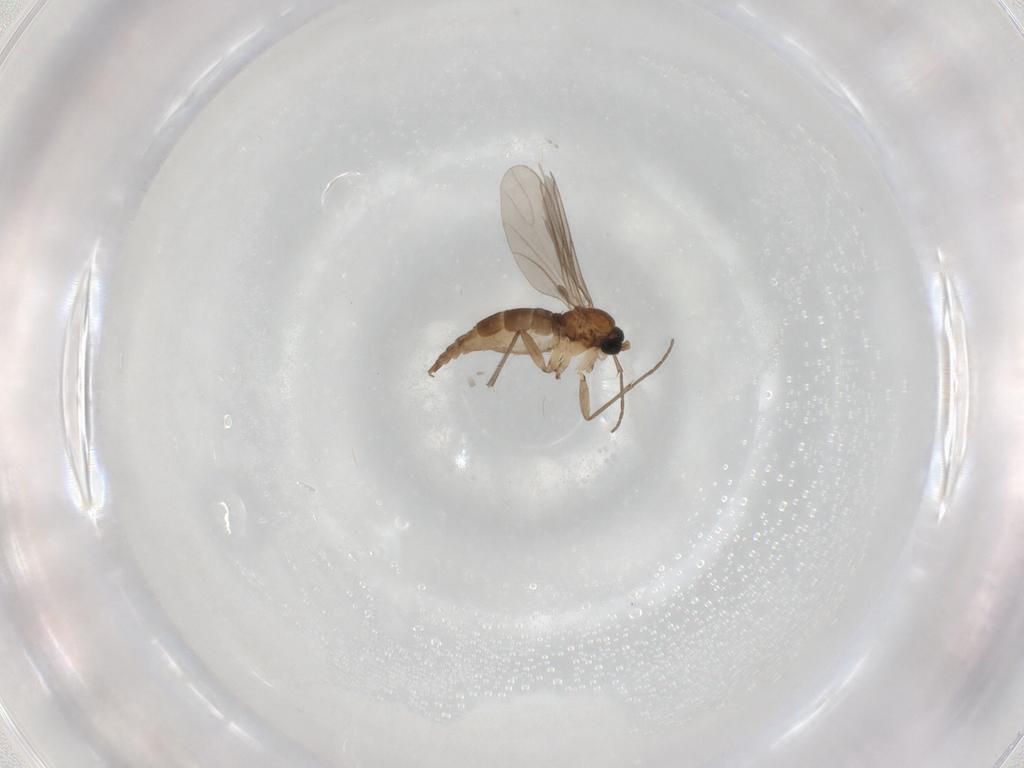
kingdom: Animalia
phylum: Arthropoda
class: Insecta
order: Diptera
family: Sciaridae
